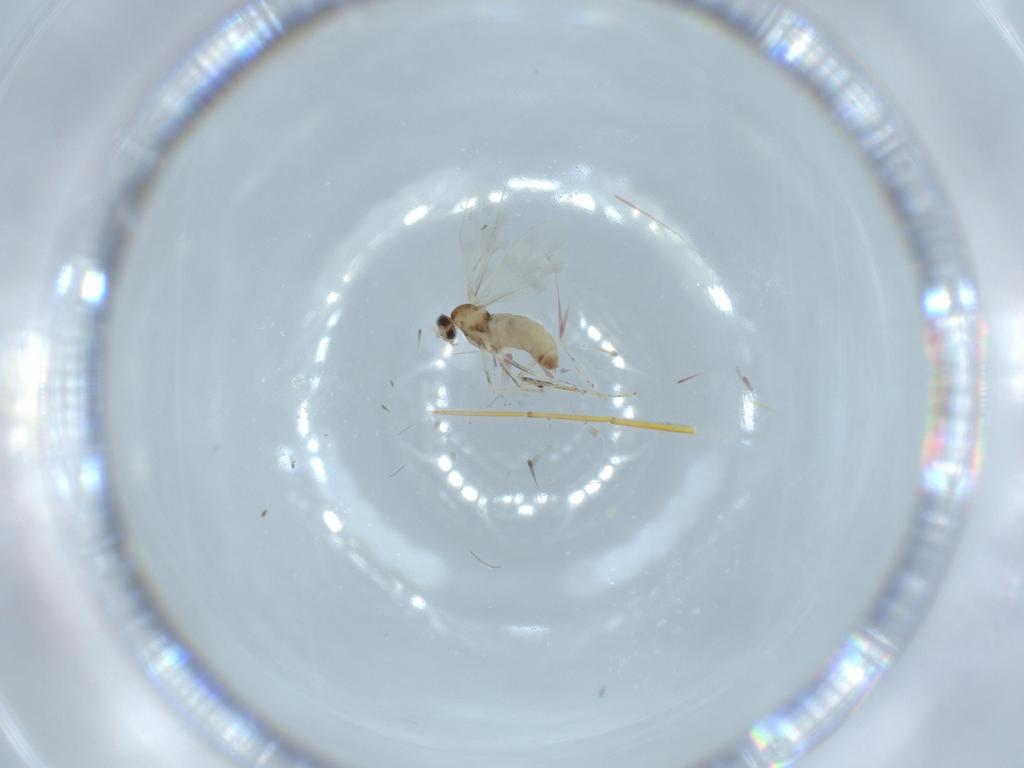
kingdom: Animalia
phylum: Arthropoda
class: Insecta
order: Diptera
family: Cecidomyiidae
